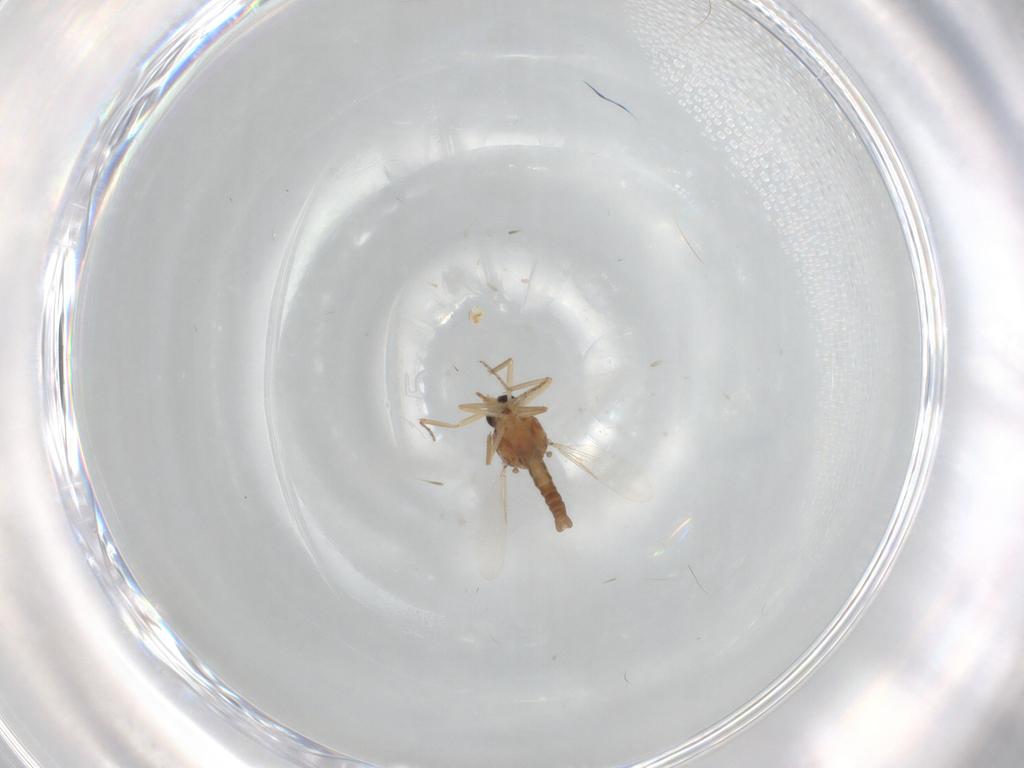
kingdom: Animalia
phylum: Arthropoda
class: Insecta
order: Diptera
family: Ceratopogonidae
